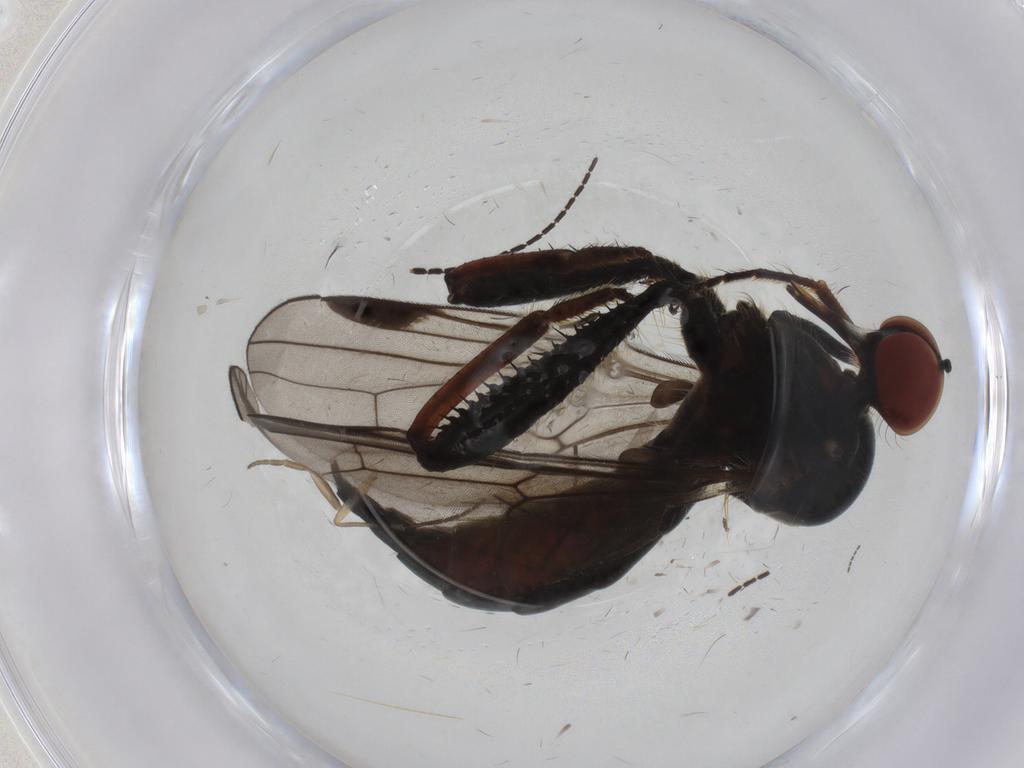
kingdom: Animalia
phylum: Arthropoda
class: Insecta
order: Diptera
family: Hybotidae
